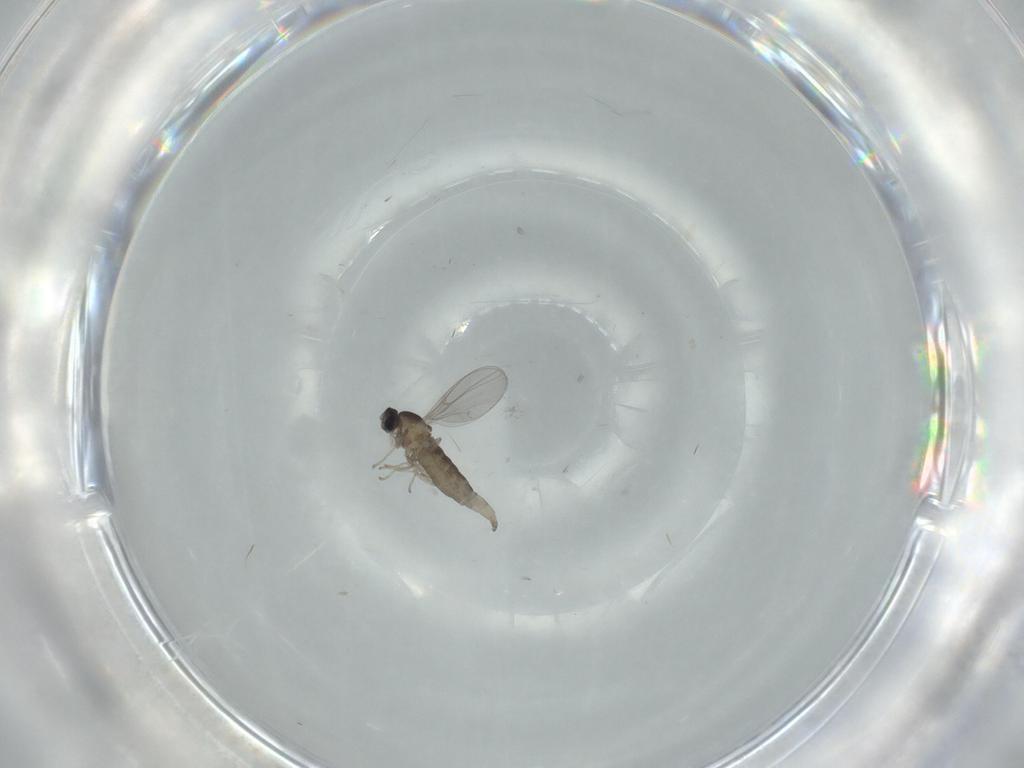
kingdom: Animalia
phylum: Arthropoda
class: Insecta
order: Diptera
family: Cecidomyiidae
